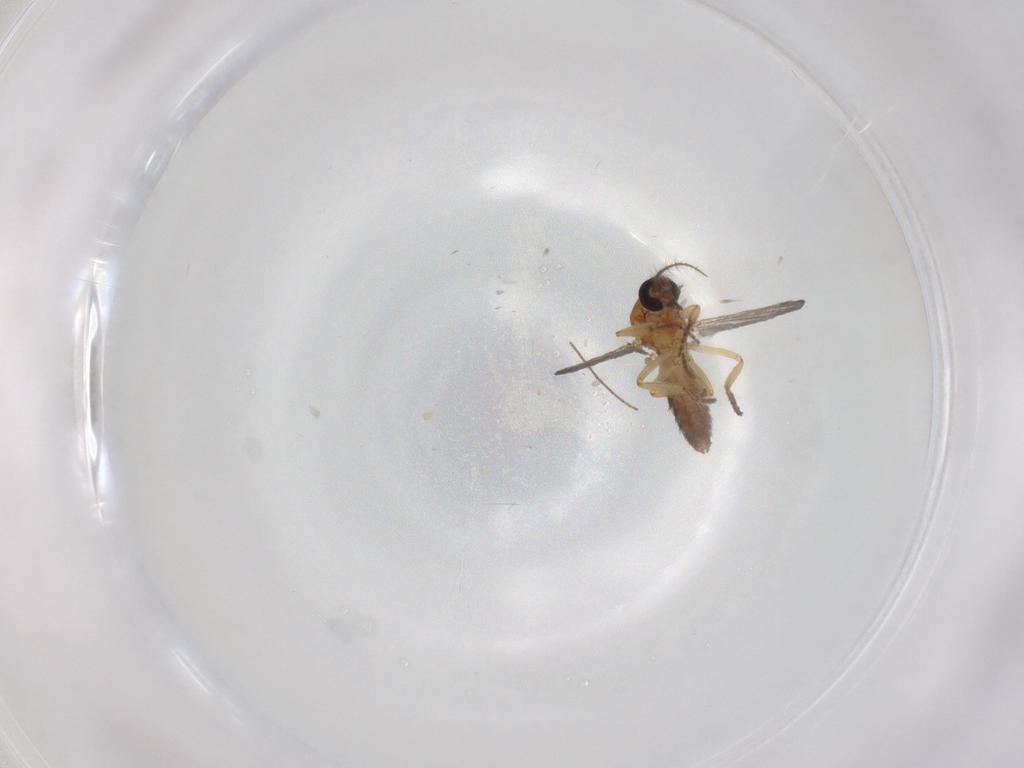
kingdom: Animalia
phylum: Arthropoda
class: Insecta
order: Diptera
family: Ceratopogonidae
